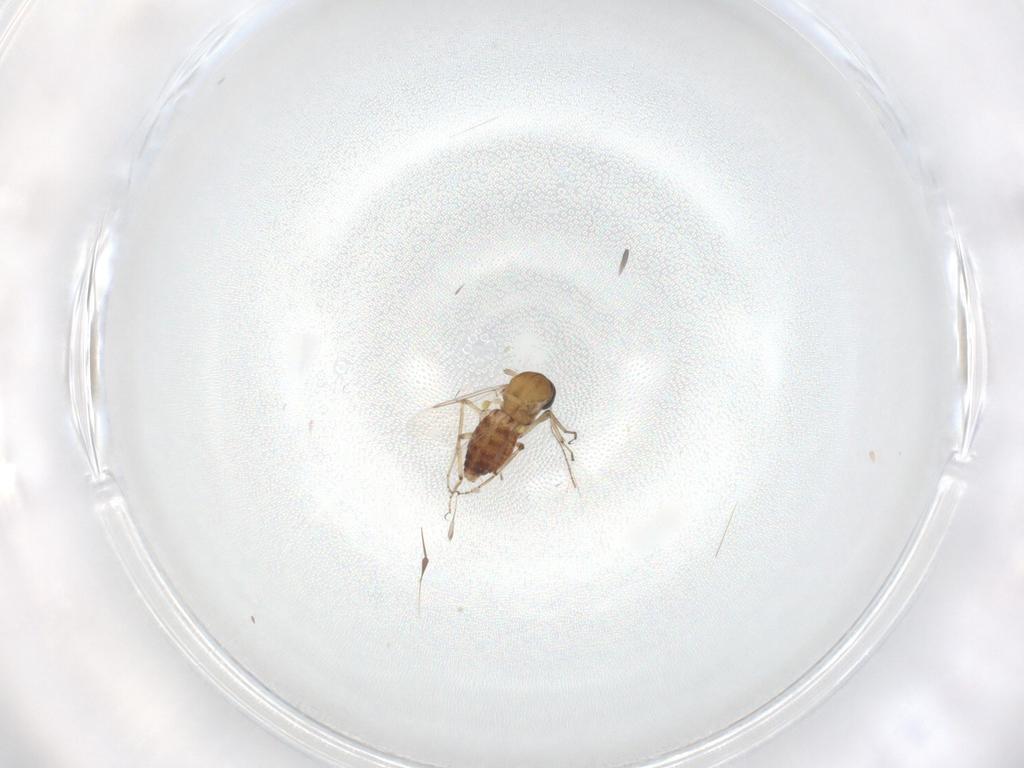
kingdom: Animalia
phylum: Arthropoda
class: Insecta
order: Diptera
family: Ceratopogonidae
